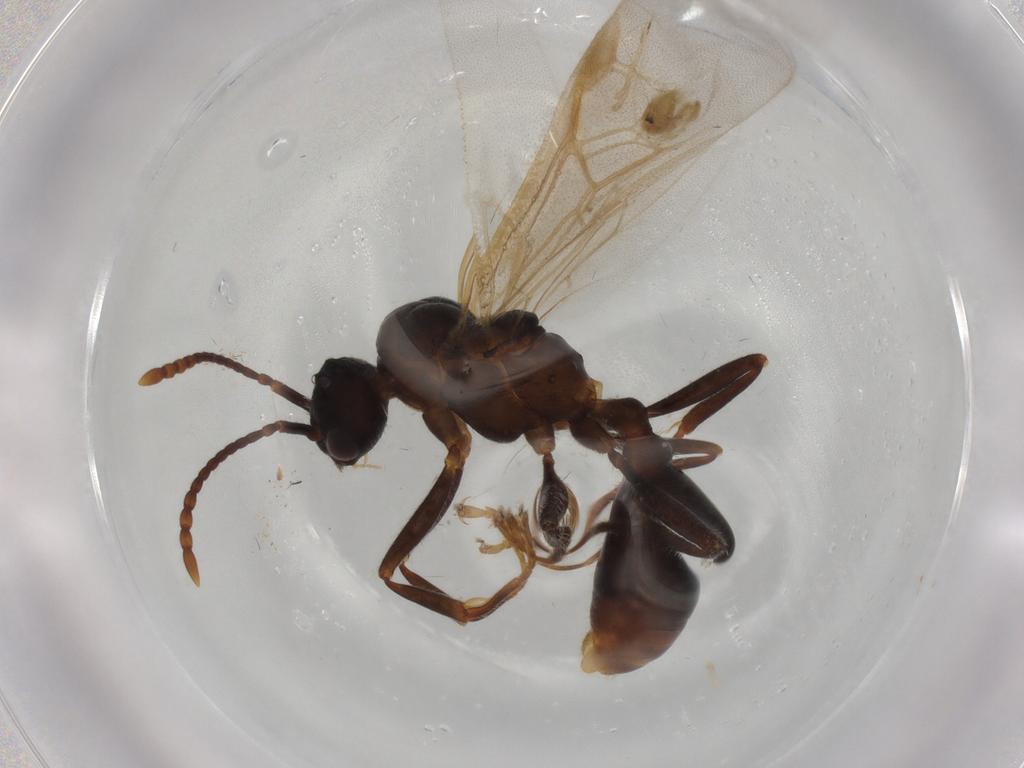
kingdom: Animalia
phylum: Arthropoda
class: Insecta
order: Hymenoptera
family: Formicidae
